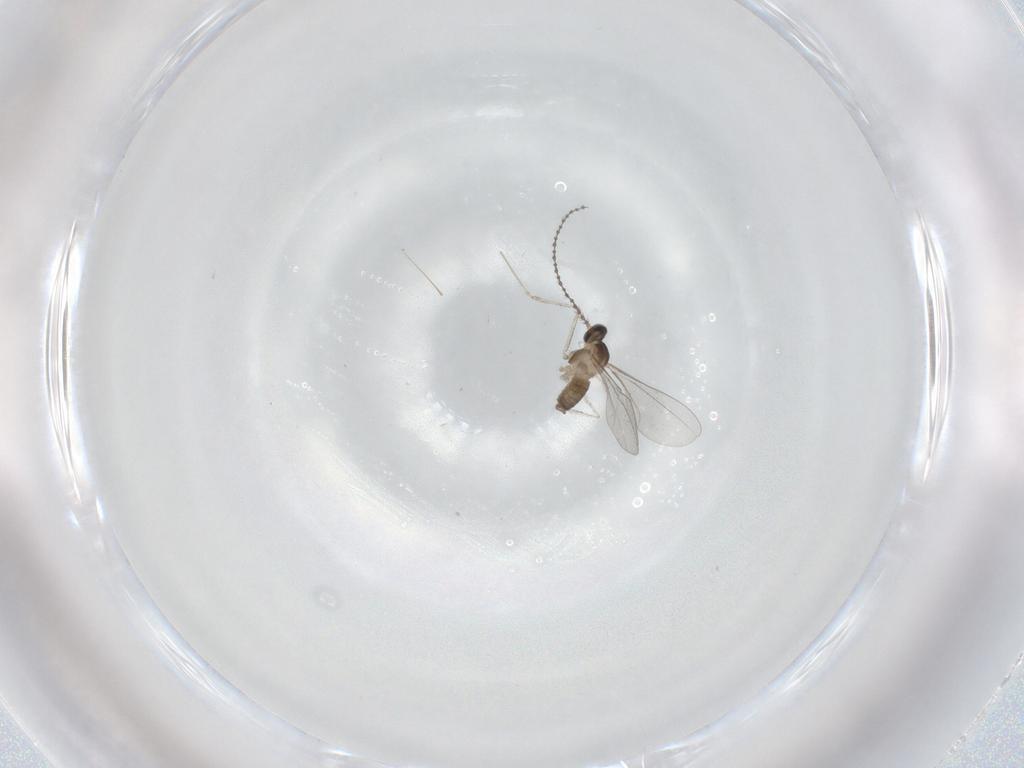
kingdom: Animalia
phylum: Arthropoda
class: Insecta
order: Diptera
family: Cecidomyiidae
